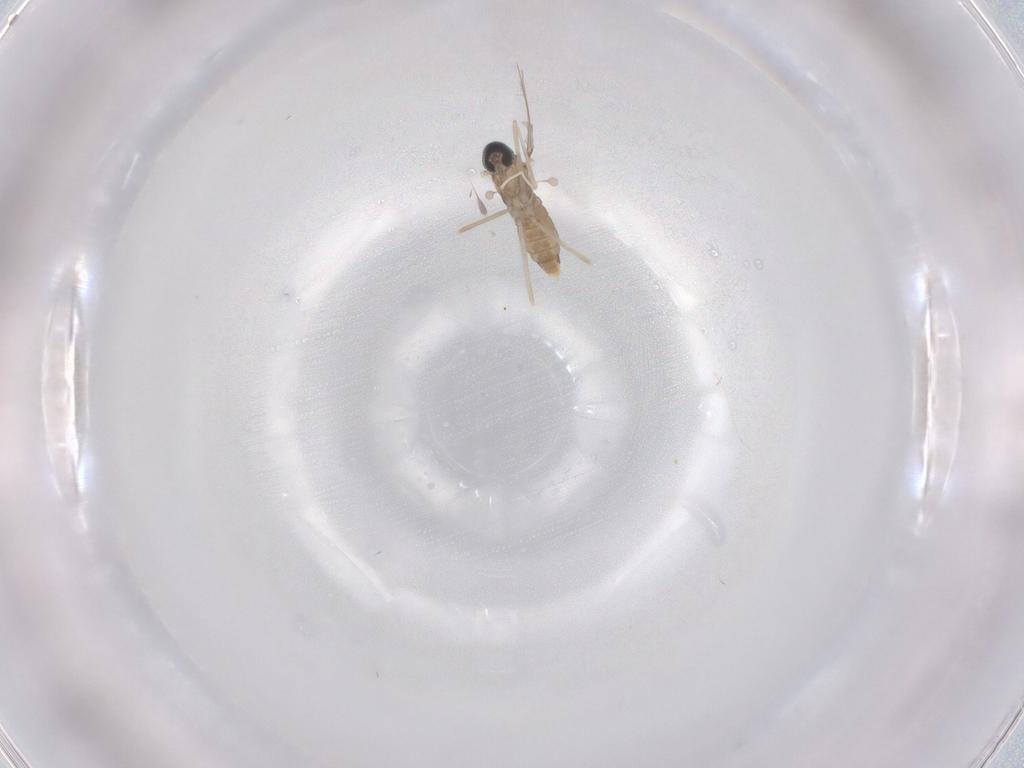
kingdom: Animalia
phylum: Arthropoda
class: Insecta
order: Diptera
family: Cecidomyiidae
